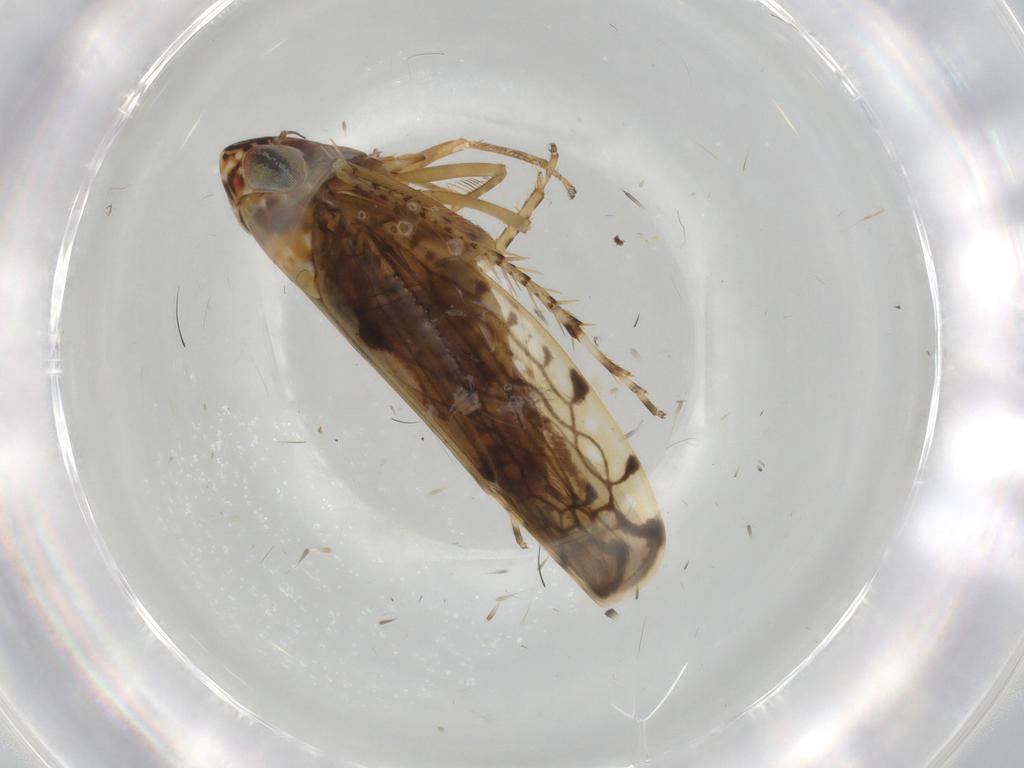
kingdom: Animalia
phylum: Arthropoda
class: Insecta
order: Hemiptera
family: Cicadellidae
